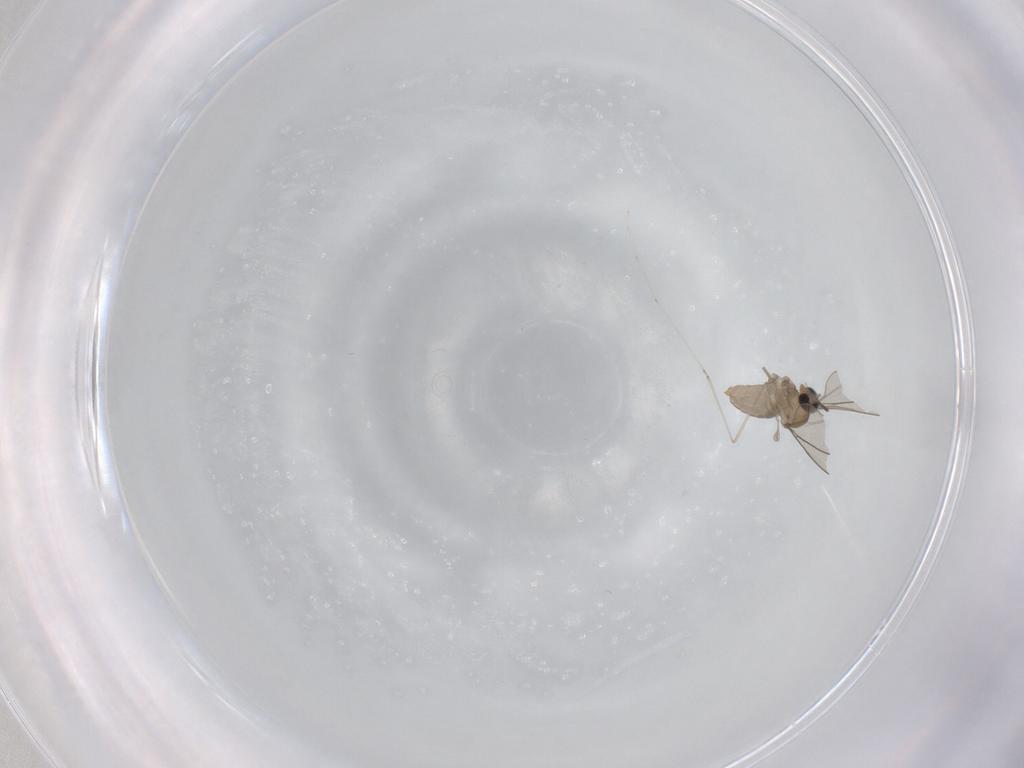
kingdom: Animalia
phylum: Arthropoda
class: Insecta
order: Diptera
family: Cecidomyiidae
